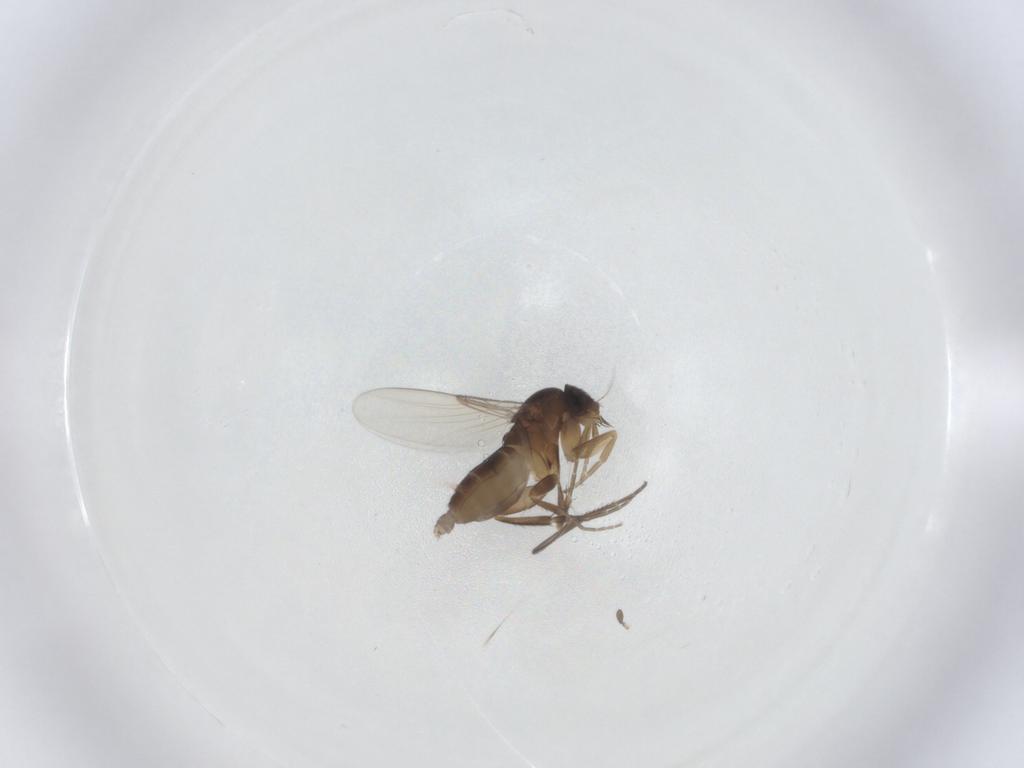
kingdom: Animalia
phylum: Arthropoda
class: Insecta
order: Diptera
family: Phoridae
